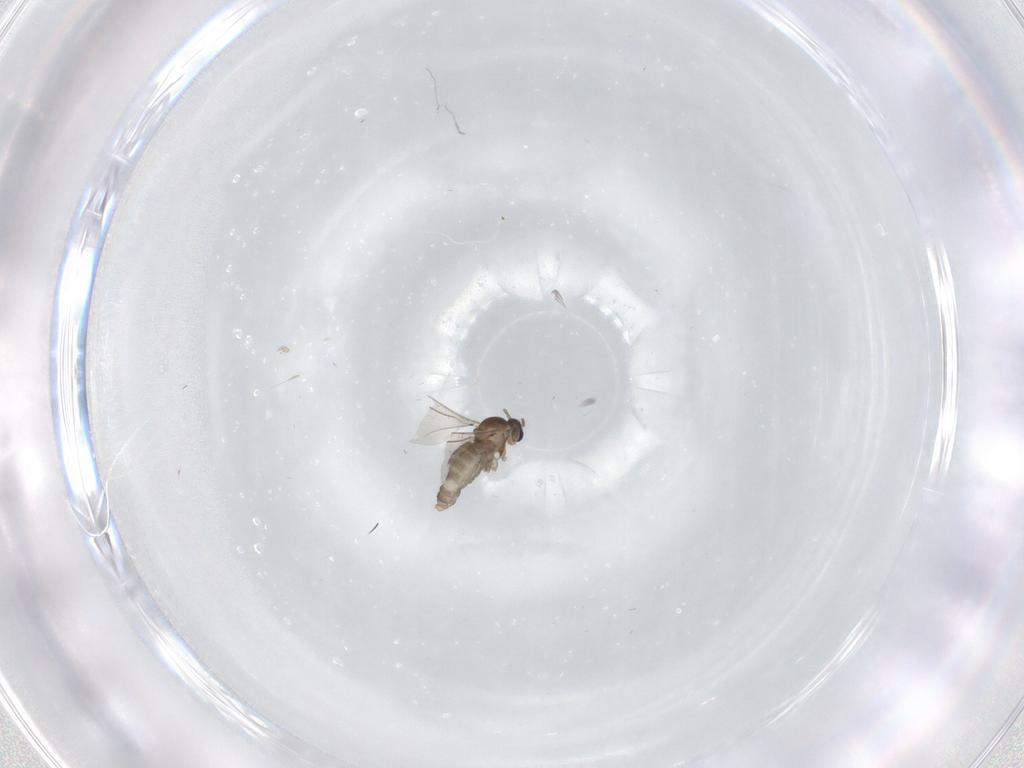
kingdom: Animalia
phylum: Arthropoda
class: Insecta
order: Diptera
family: Cecidomyiidae
